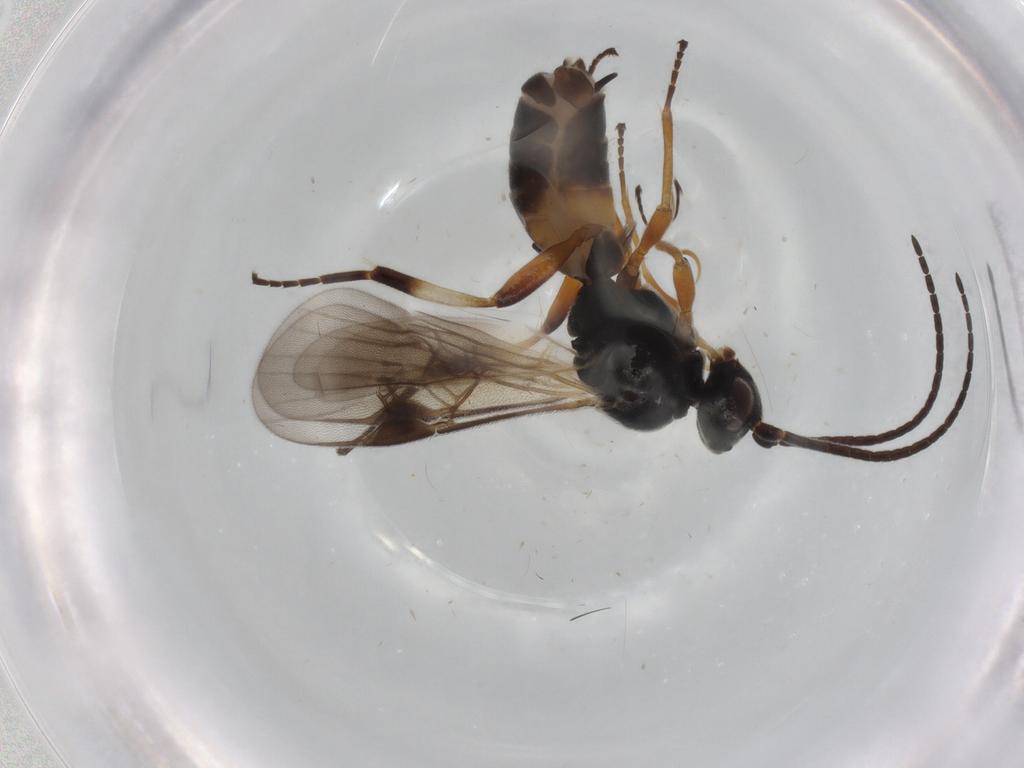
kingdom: Animalia
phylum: Arthropoda
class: Insecta
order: Hymenoptera
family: Braconidae
